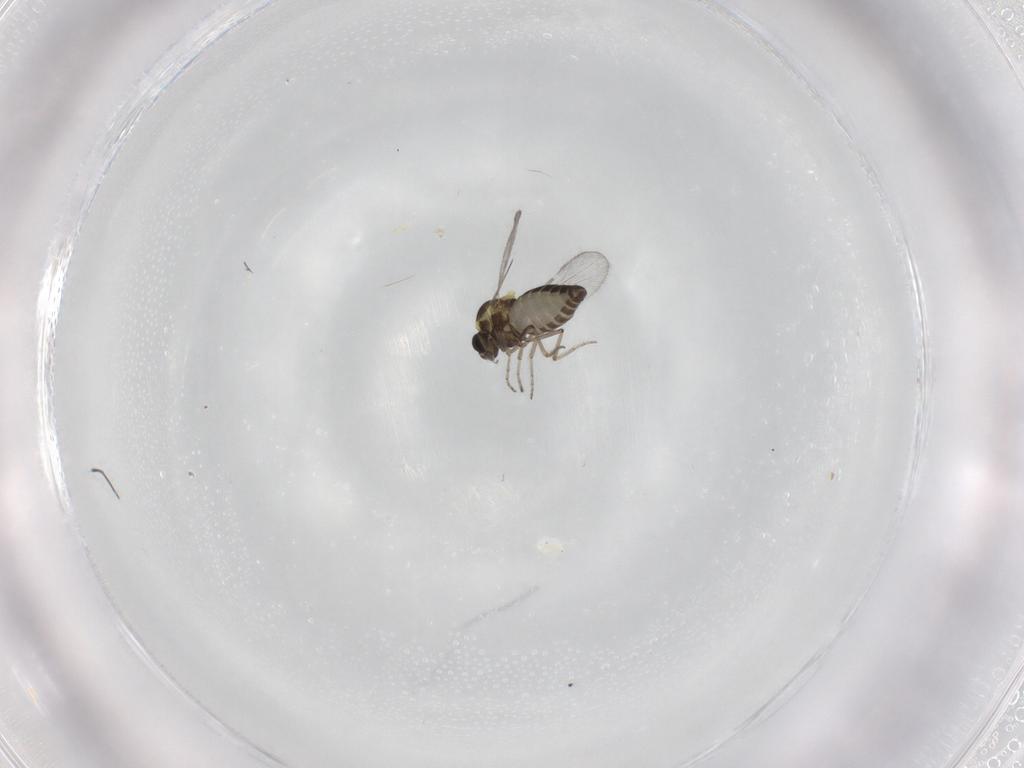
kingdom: Animalia
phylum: Arthropoda
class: Insecta
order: Diptera
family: Ceratopogonidae
